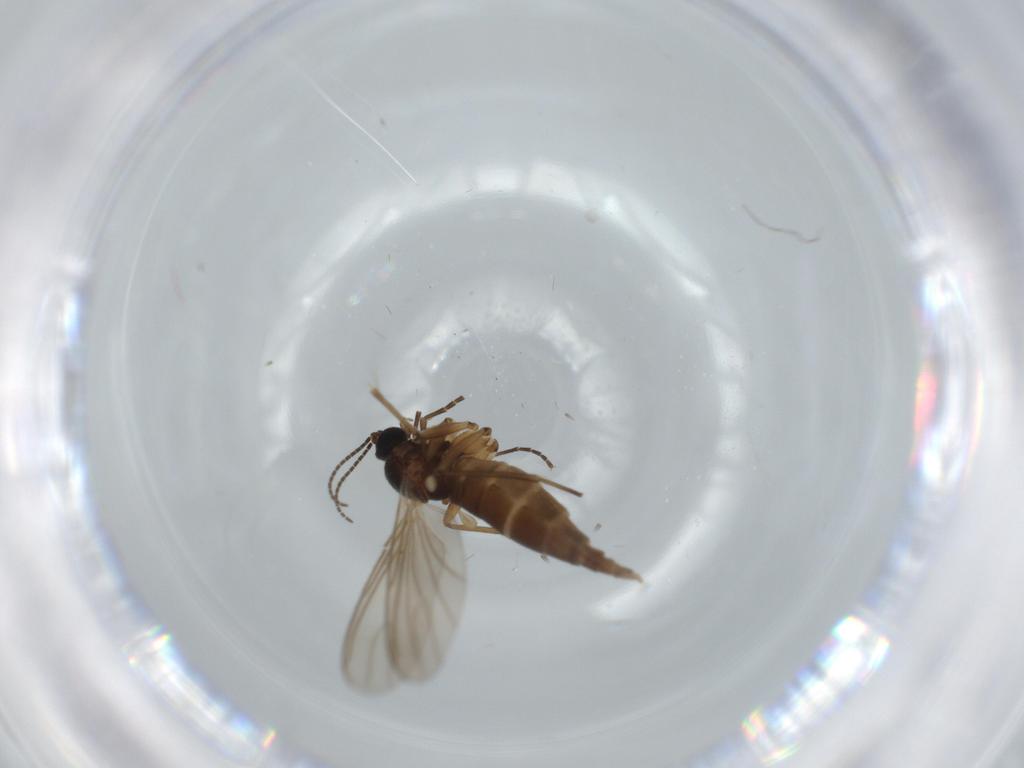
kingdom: Animalia
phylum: Arthropoda
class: Insecta
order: Diptera
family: Sciaridae
